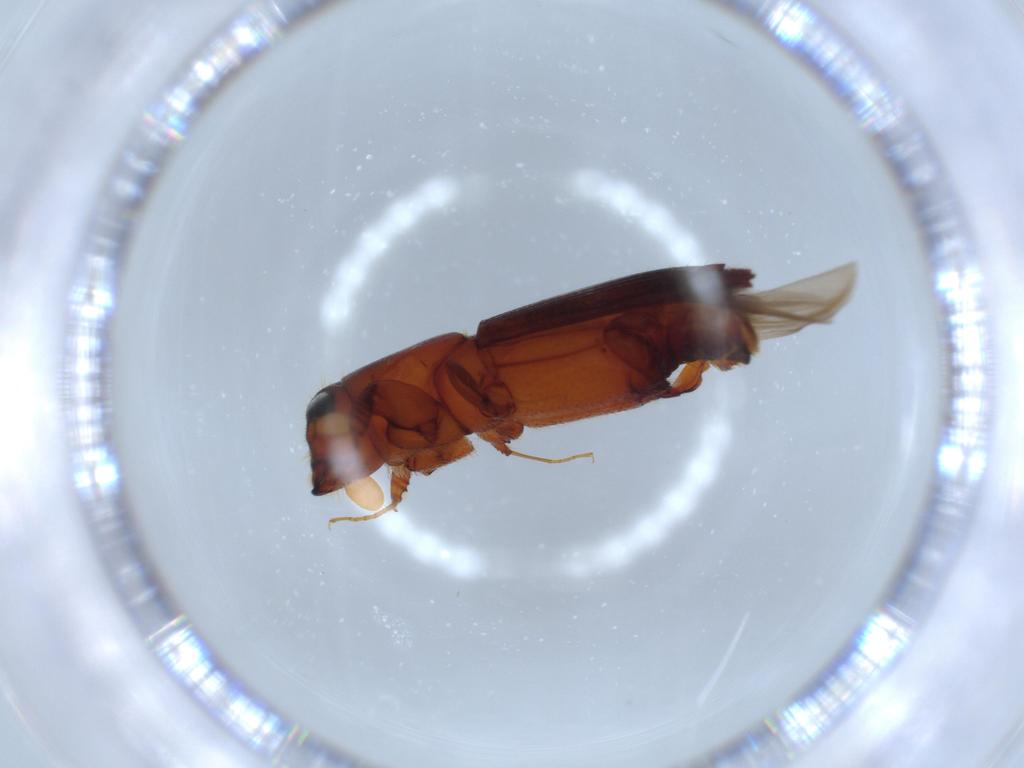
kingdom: Animalia
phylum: Arthropoda
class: Insecta
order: Coleoptera
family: Curculionidae
